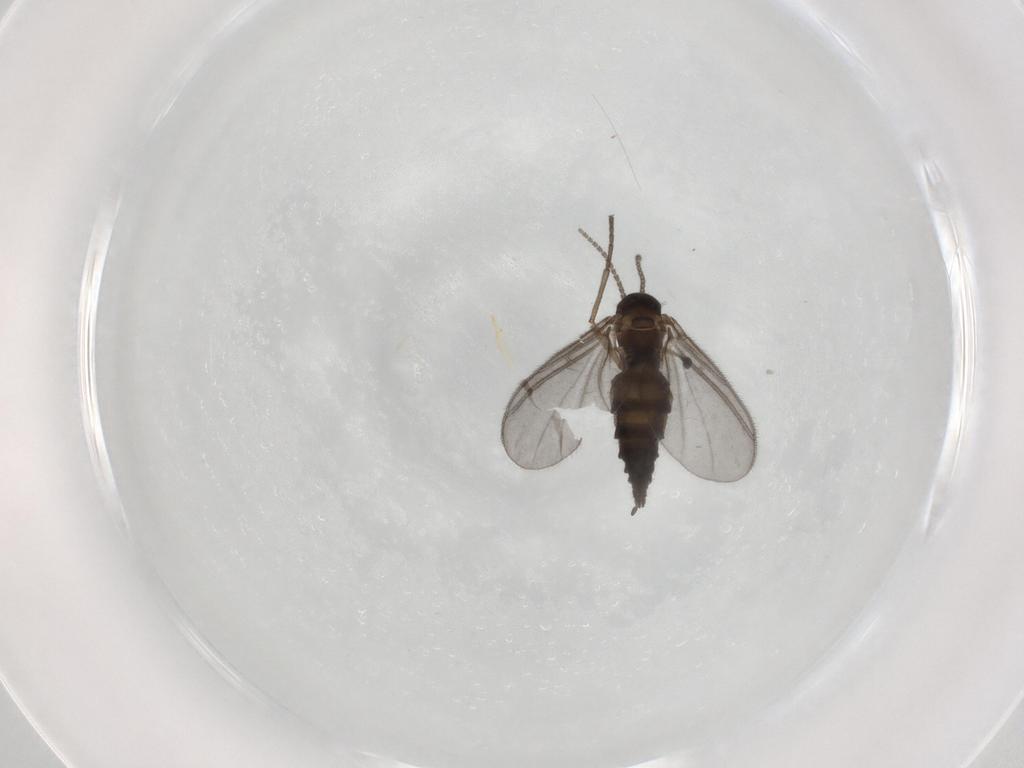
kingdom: Animalia
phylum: Arthropoda
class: Insecta
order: Diptera
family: Sciaridae
